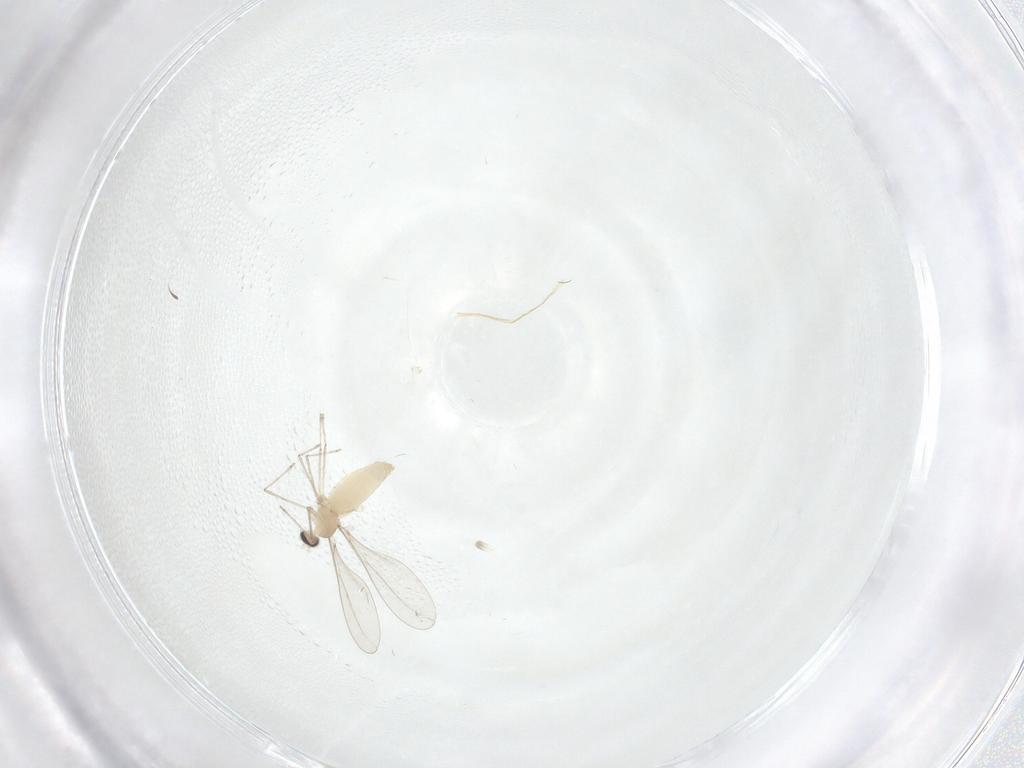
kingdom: Animalia
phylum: Arthropoda
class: Insecta
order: Diptera
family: Cecidomyiidae
